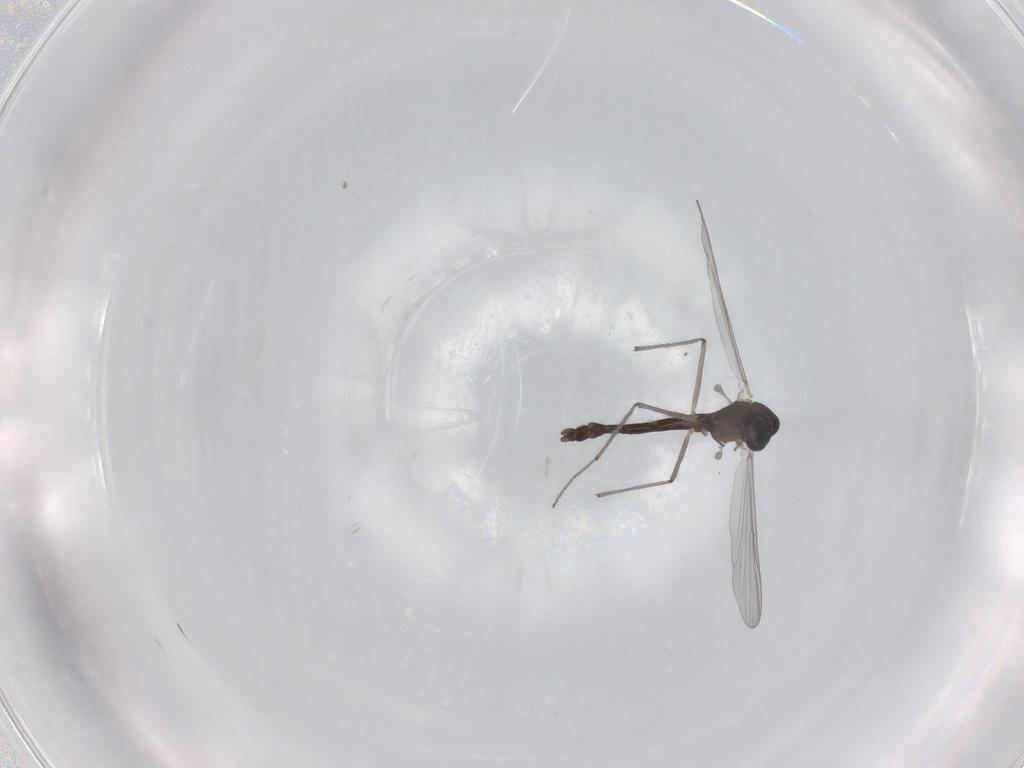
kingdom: Animalia
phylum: Arthropoda
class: Insecta
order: Diptera
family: Chironomidae
